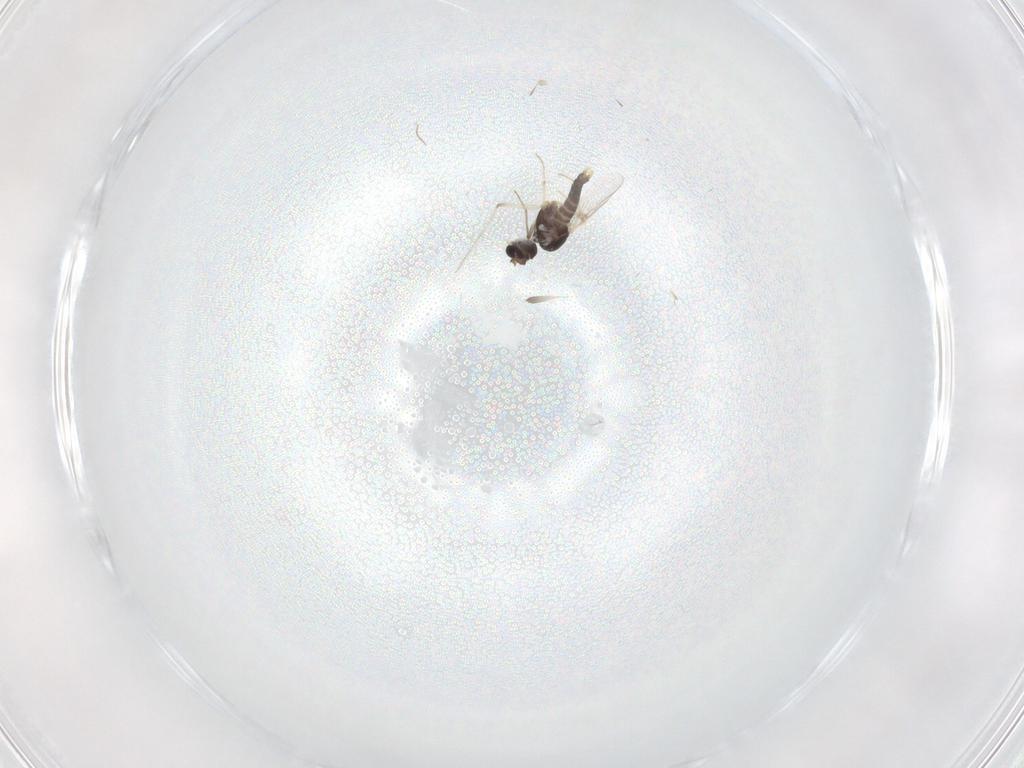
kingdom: Animalia
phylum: Arthropoda
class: Insecta
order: Diptera
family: Chironomidae
